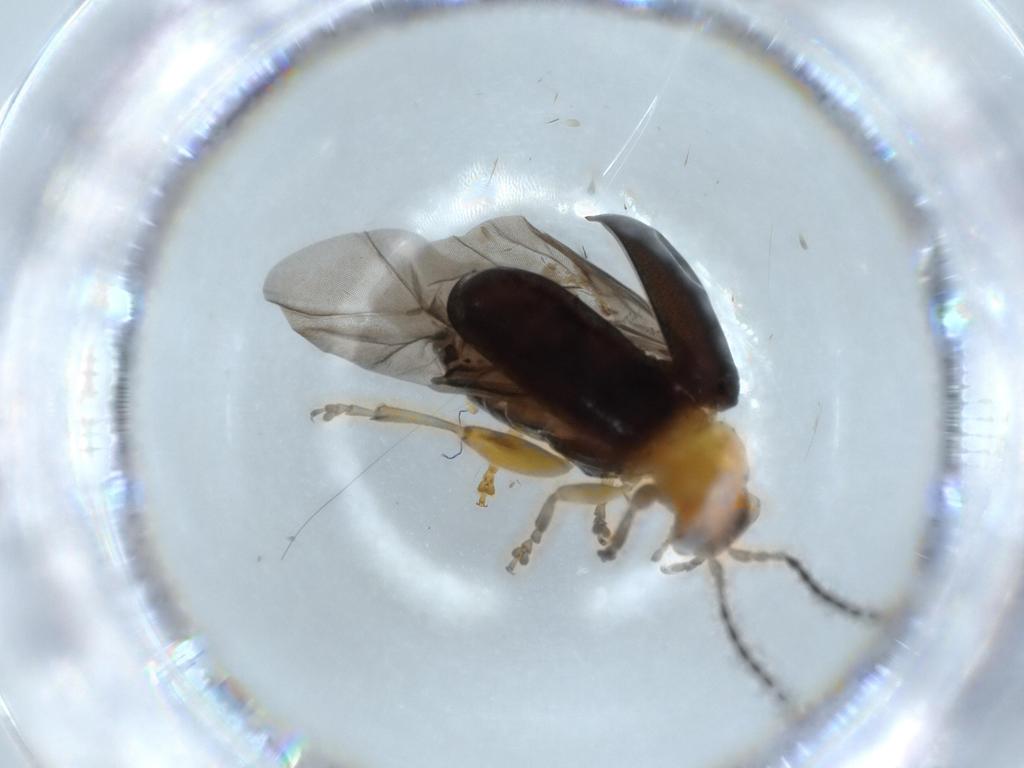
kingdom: Animalia
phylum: Arthropoda
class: Insecta
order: Coleoptera
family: Chrysomelidae
